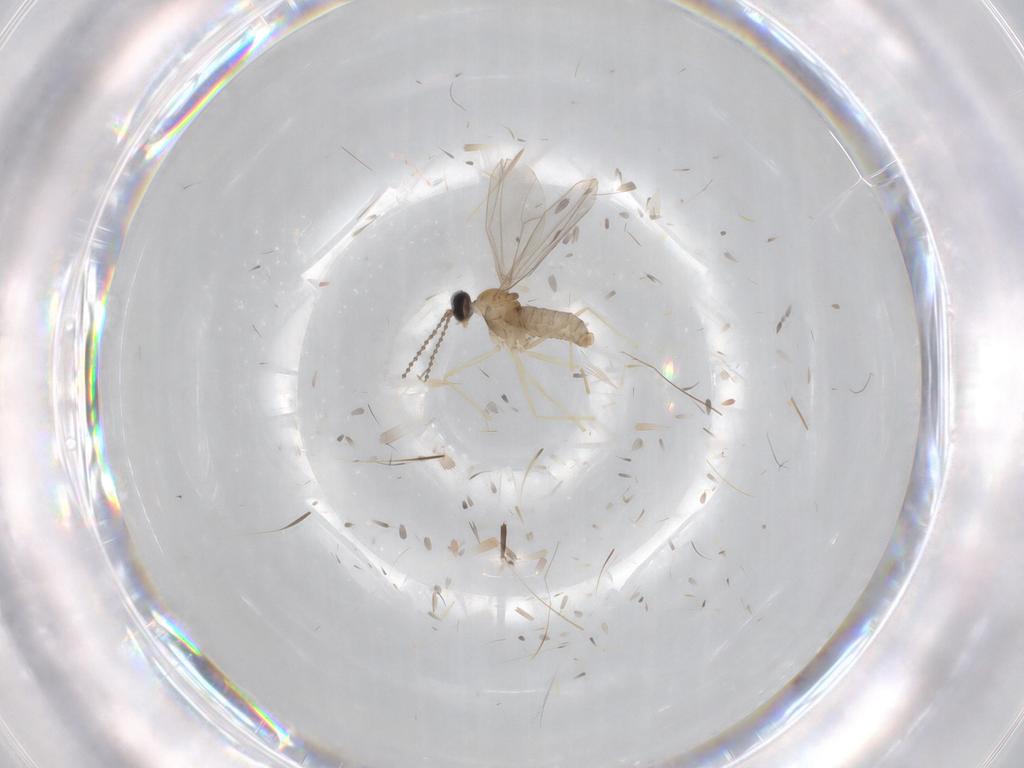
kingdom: Animalia
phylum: Arthropoda
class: Insecta
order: Diptera
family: Cecidomyiidae
